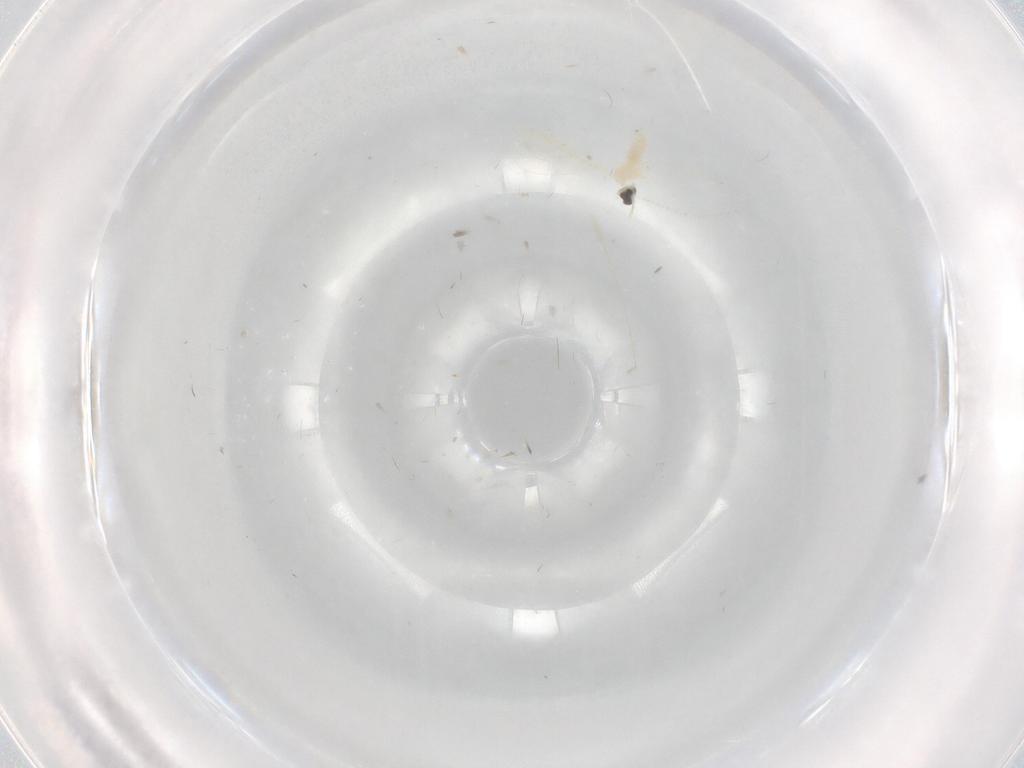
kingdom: Animalia
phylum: Arthropoda
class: Insecta
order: Diptera
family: Cecidomyiidae
